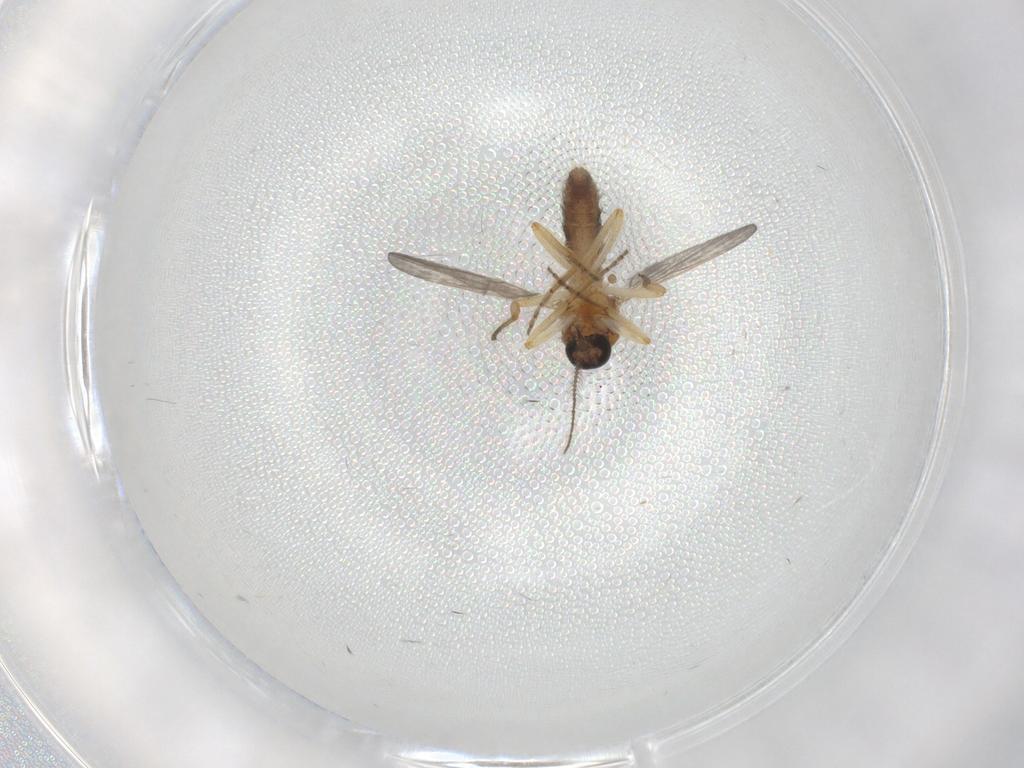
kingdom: Animalia
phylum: Arthropoda
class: Insecta
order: Diptera
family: Ceratopogonidae
